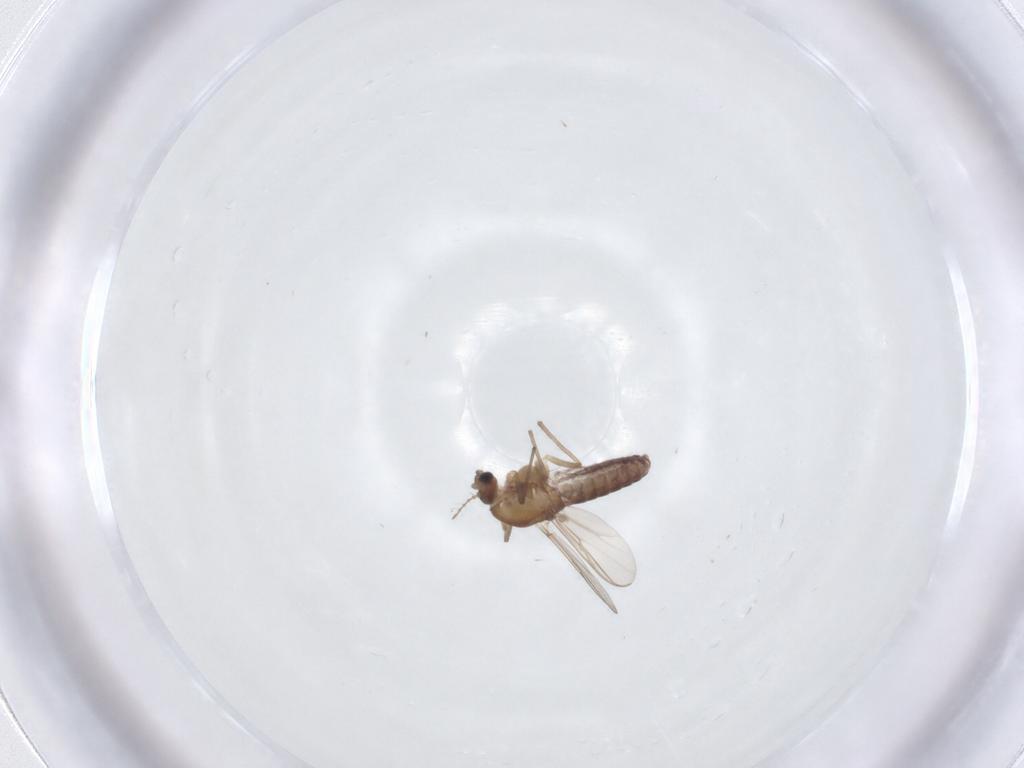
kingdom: Animalia
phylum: Arthropoda
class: Insecta
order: Diptera
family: Chironomidae
